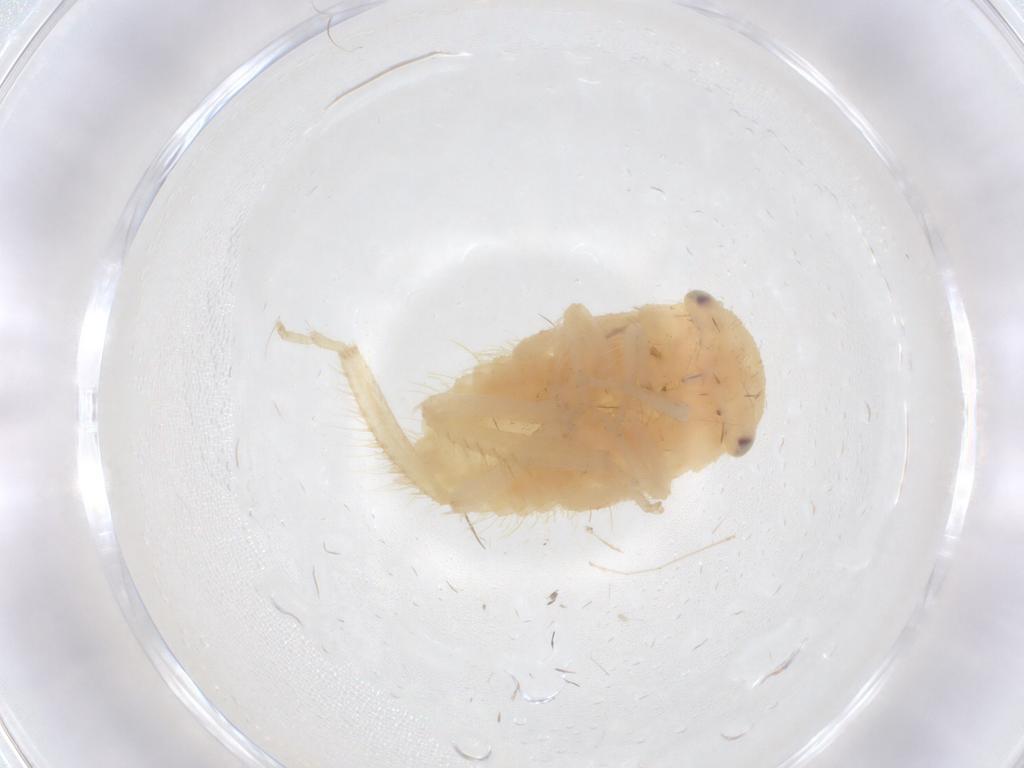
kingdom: Animalia
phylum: Arthropoda
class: Insecta
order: Hemiptera
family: Cicadellidae
